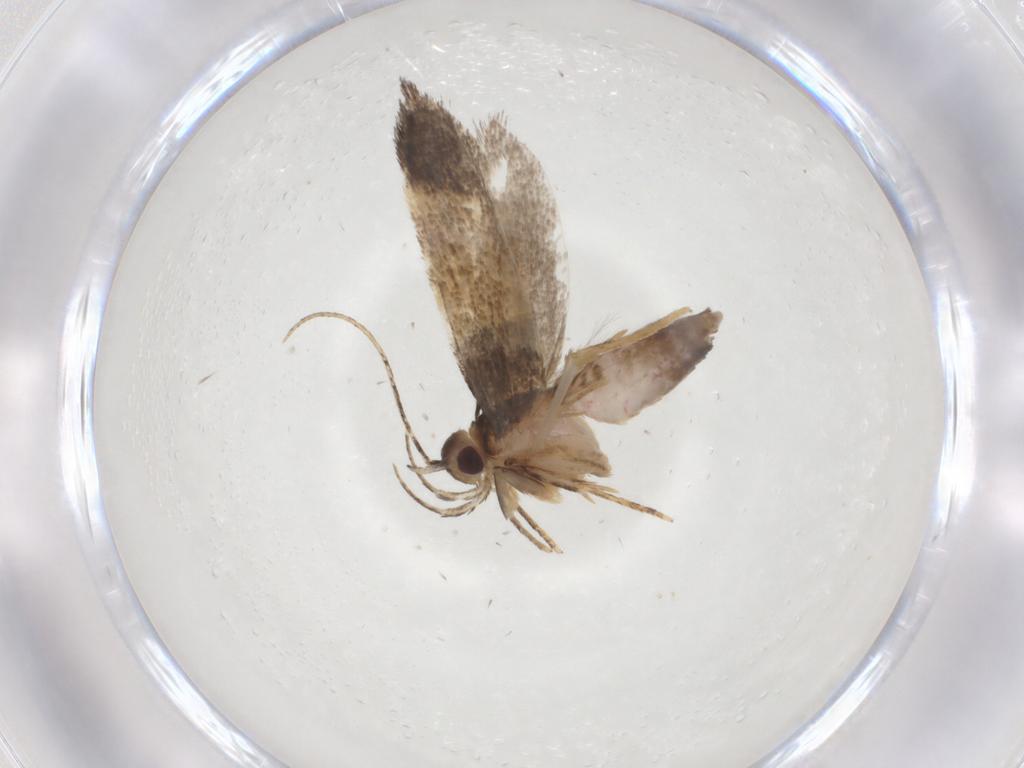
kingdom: Animalia
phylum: Arthropoda
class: Insecta
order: Lepidoptera
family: Cosmopterigidae
